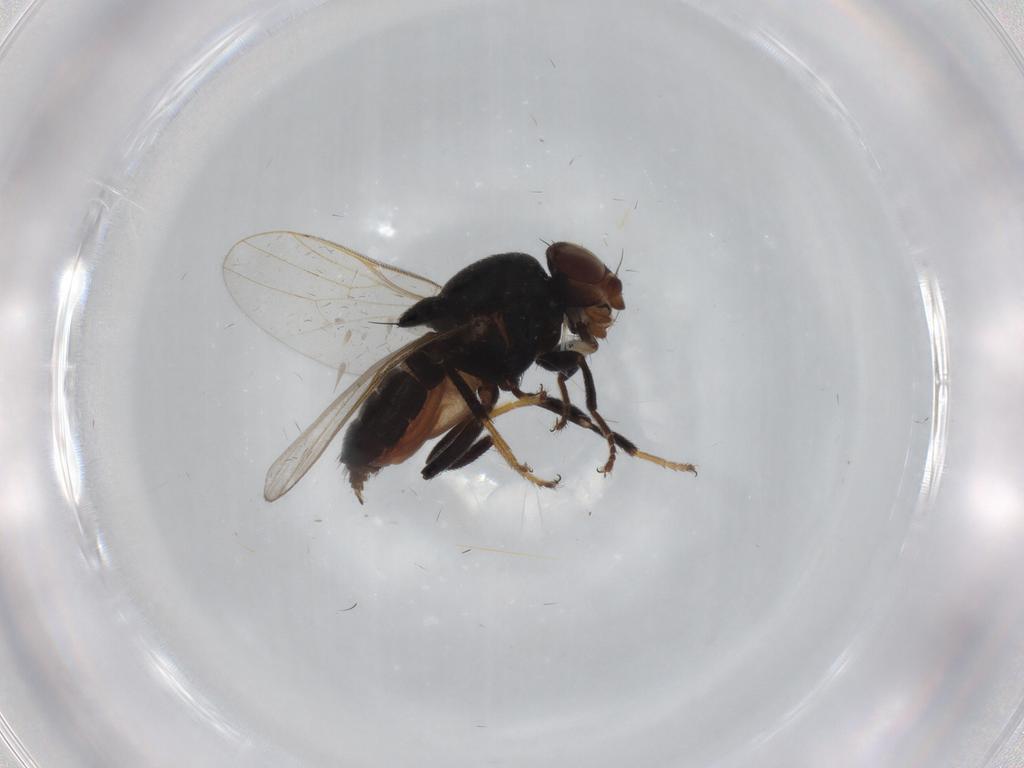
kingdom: Animalia
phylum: Arthropoda
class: Insecta
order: Diptera
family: Chloropidae
